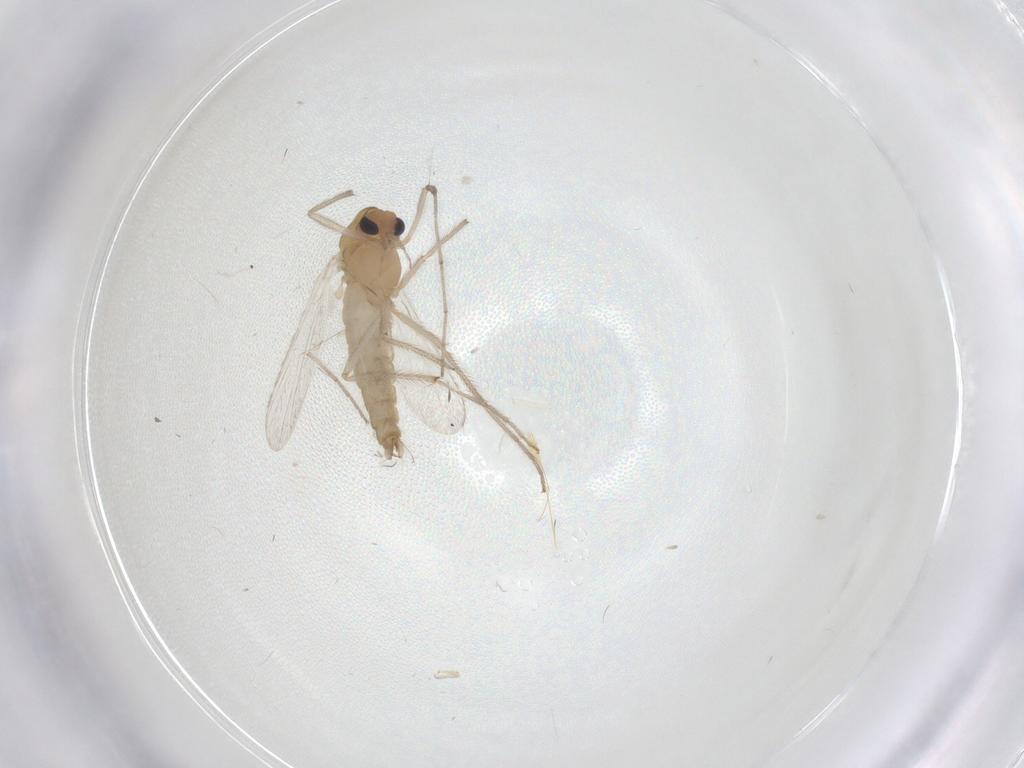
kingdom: Animalia
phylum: Arthropoda
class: Insecta
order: Diptera
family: Chironomidae
